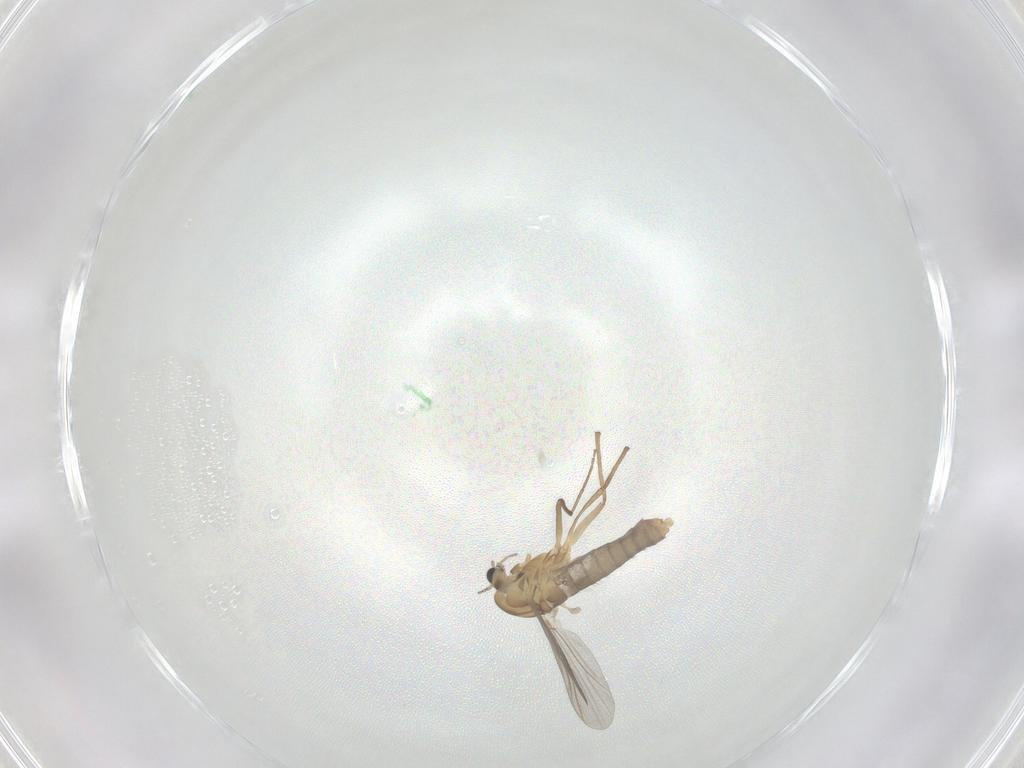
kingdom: Animalia
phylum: Arthropoda
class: Insecta
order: Diptera
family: Chironomidae
